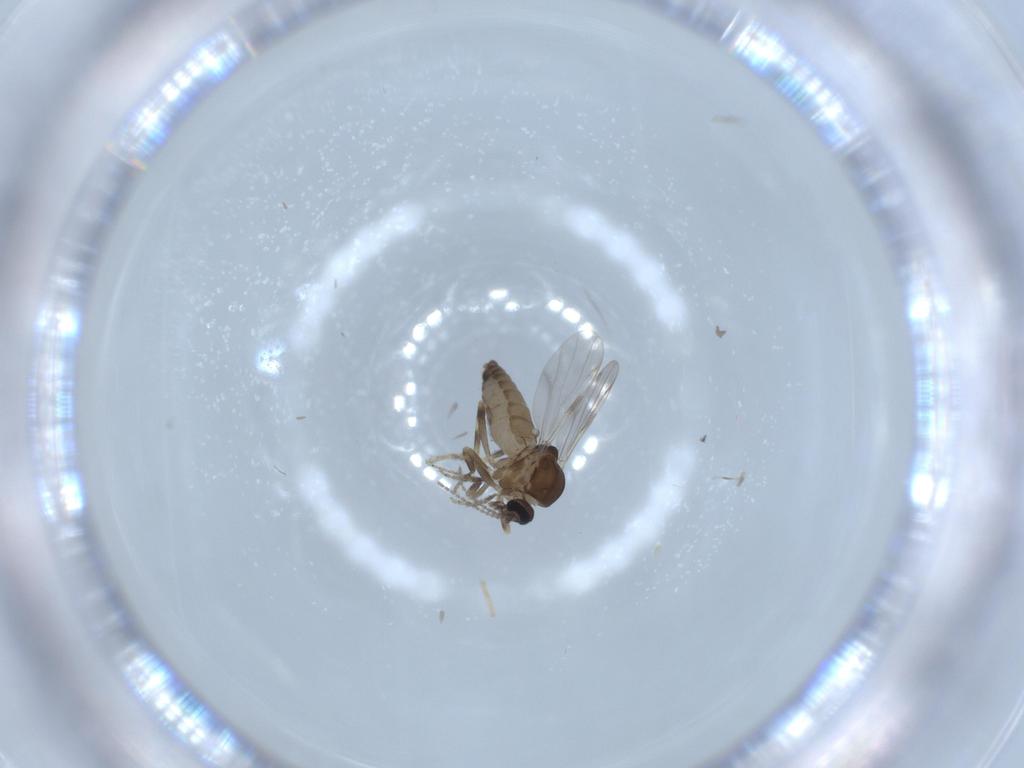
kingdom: Animalia
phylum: Arthropoda
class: Insecta
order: Diptera
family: Ceratopogonidae
